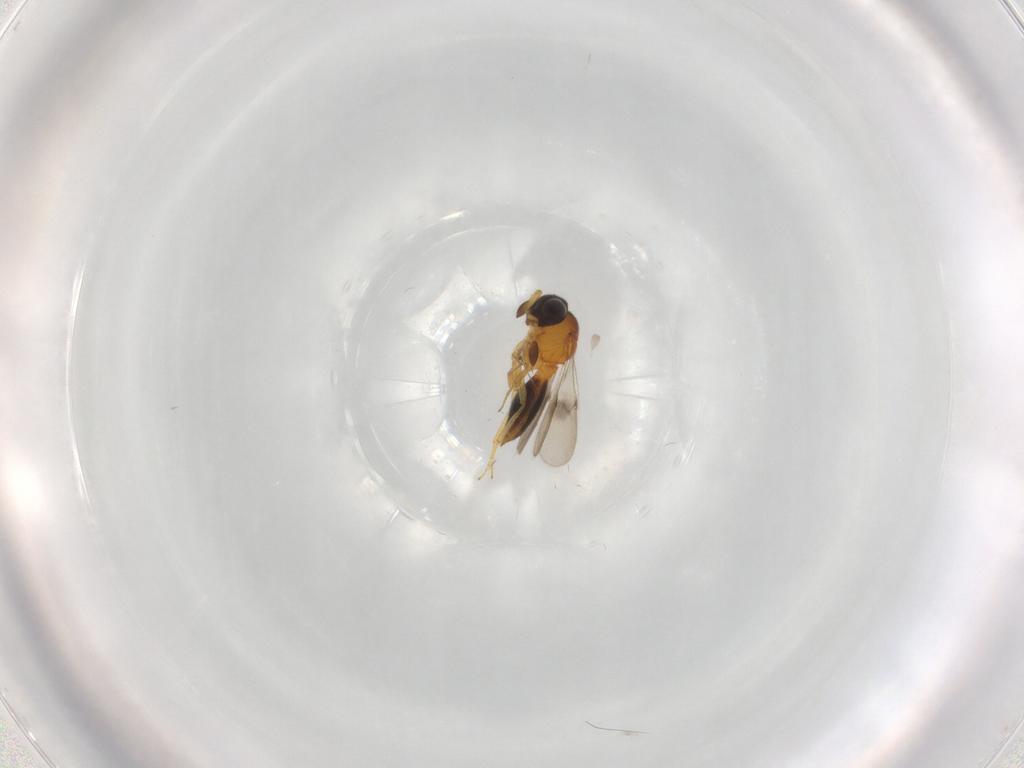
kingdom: Animalia
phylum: Arthropoda
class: Insecta
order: Hymenoptera
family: Scelionidae
